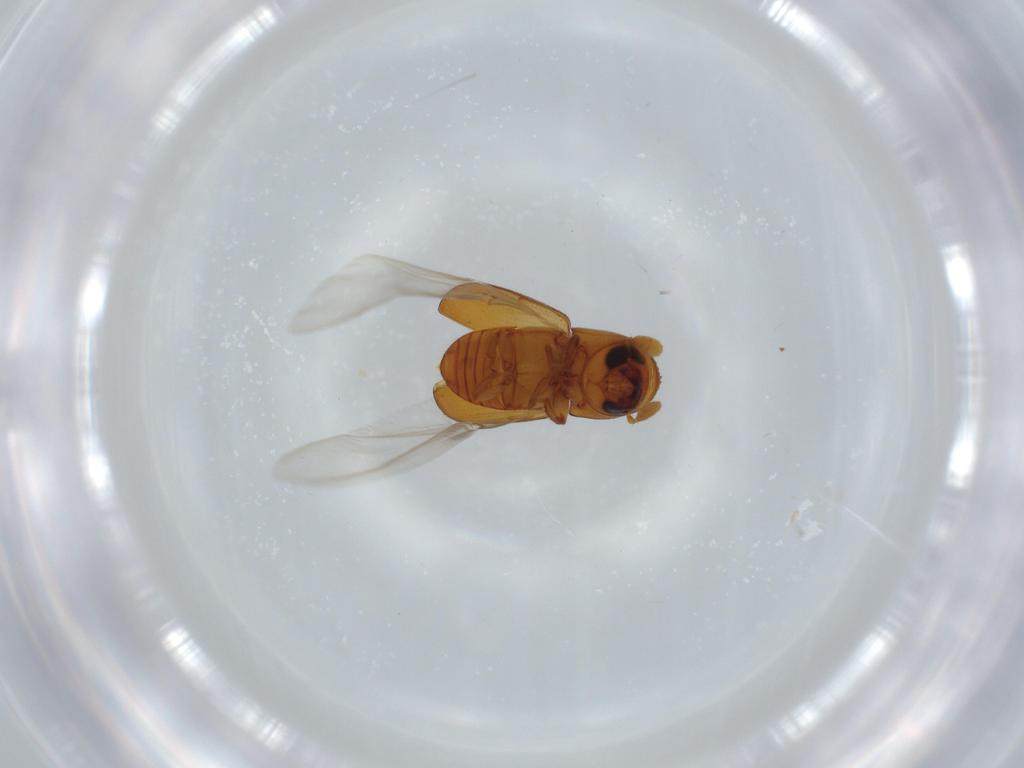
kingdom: Animalia
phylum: Arthropoda
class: Insecta
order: Coleoptera
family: Curculionidae
